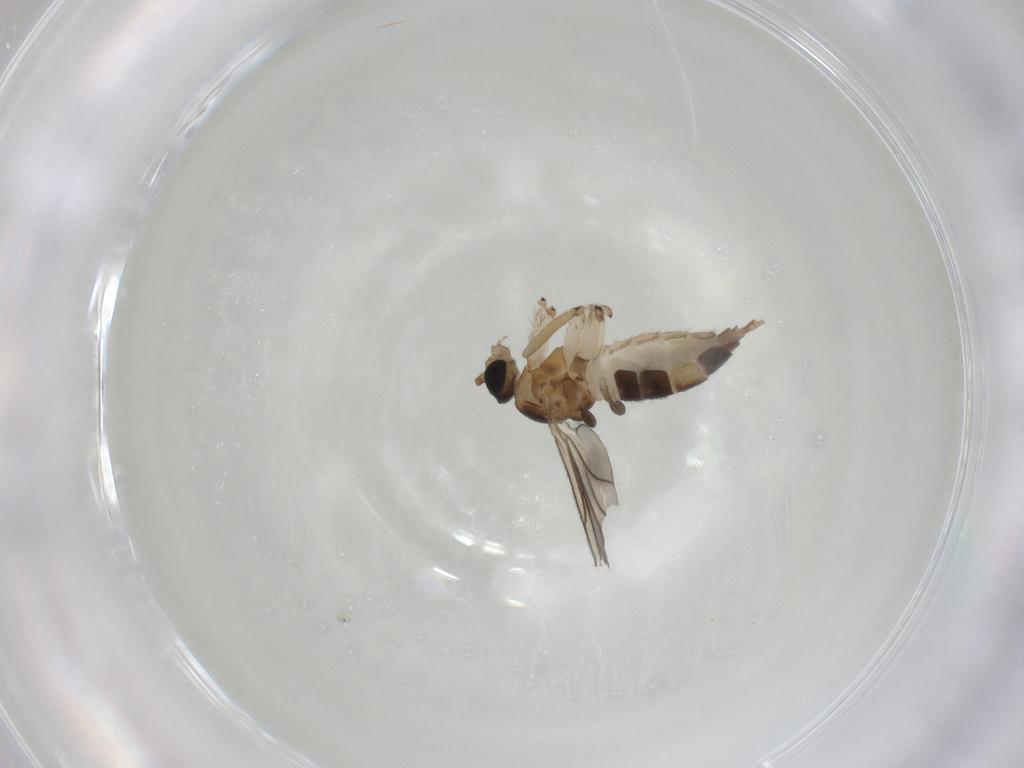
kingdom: Animalia
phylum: Arthropoda
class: Insecta
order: Diptera
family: Sciaridae
